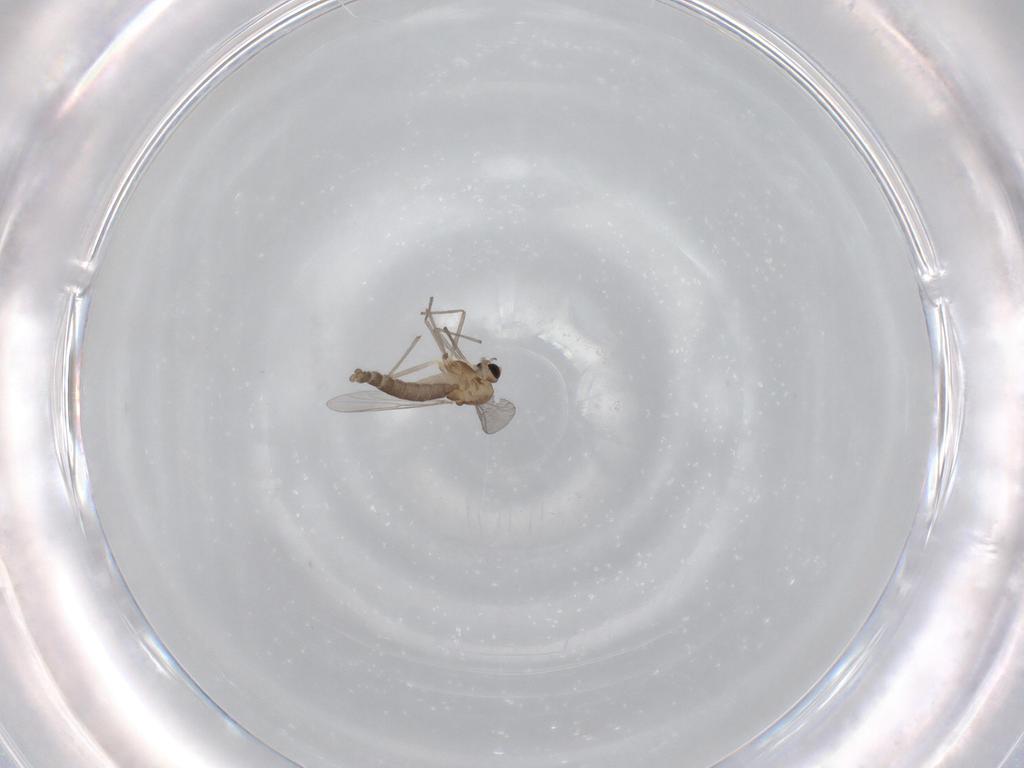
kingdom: Animalia
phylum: Arthropoda
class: Insecta
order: Diptera
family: Chironomidae
